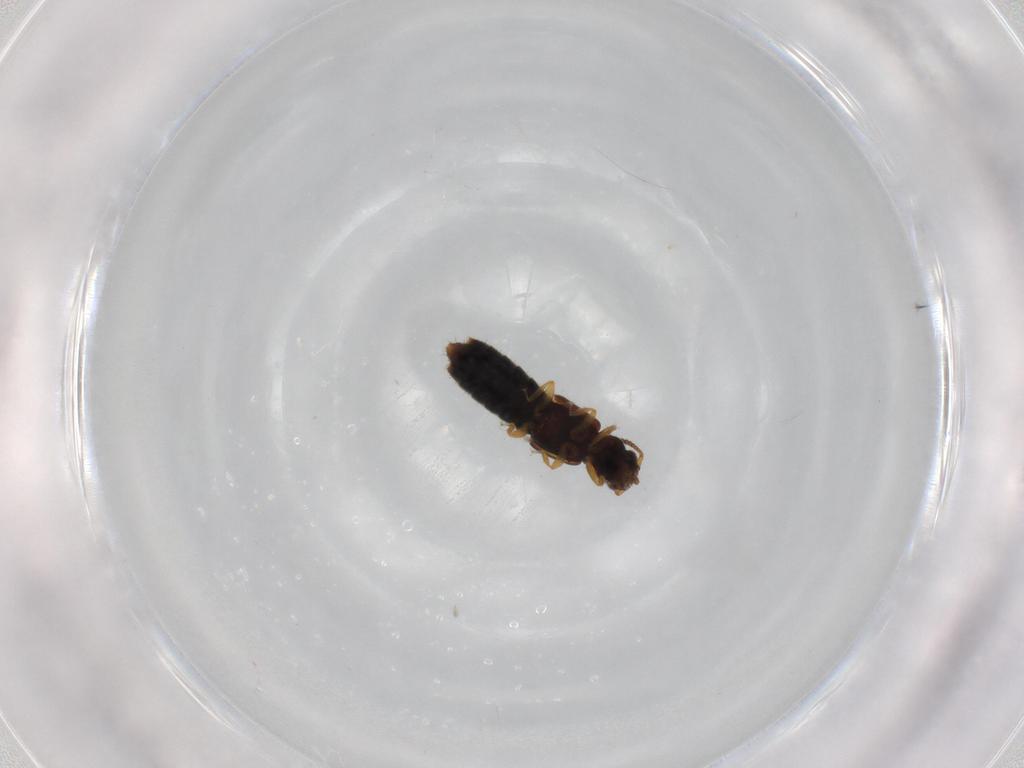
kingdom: Animalia
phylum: Arthropoda
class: Insecta
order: Coleoptera
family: Staphylinidae
